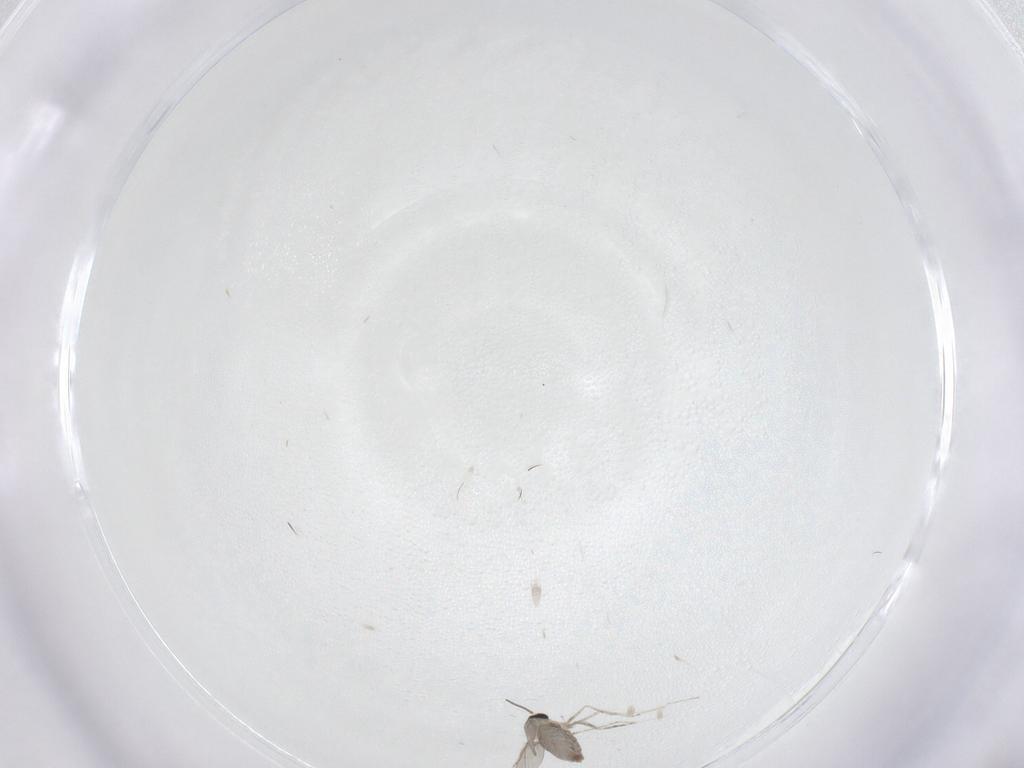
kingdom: Animalia
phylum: Arthropoda
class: Insecta
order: Diptera
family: Cecidomyiidae
